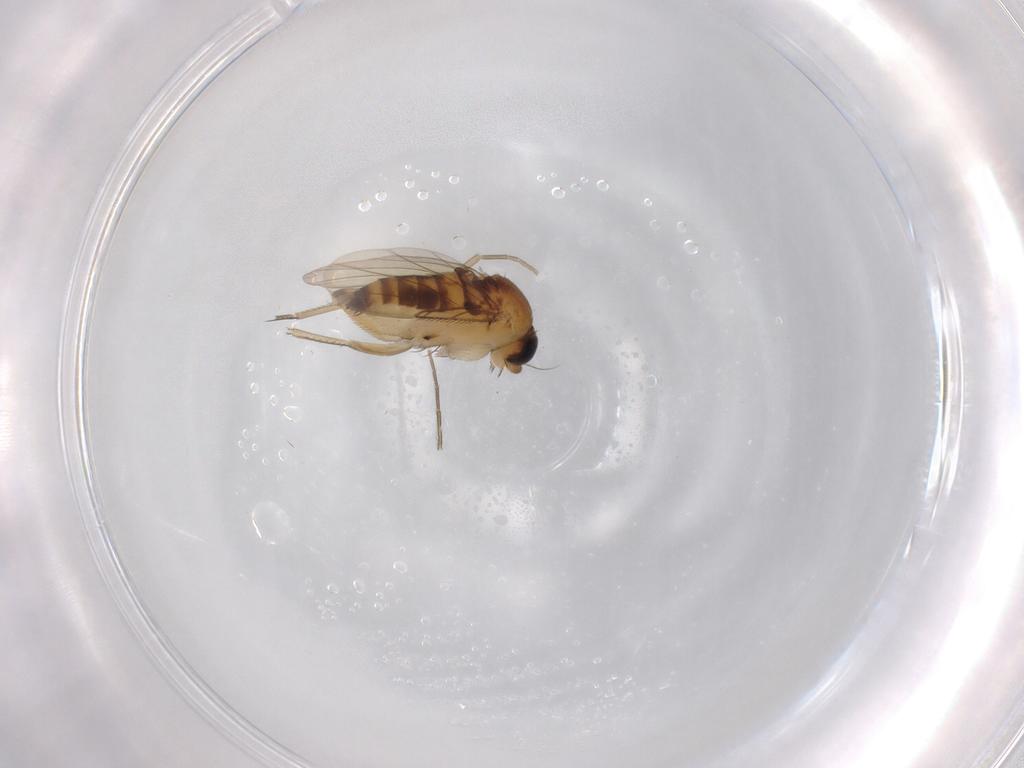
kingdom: Animalia
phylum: Arthropoda
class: Insecta
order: Diptera
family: Phoridae
